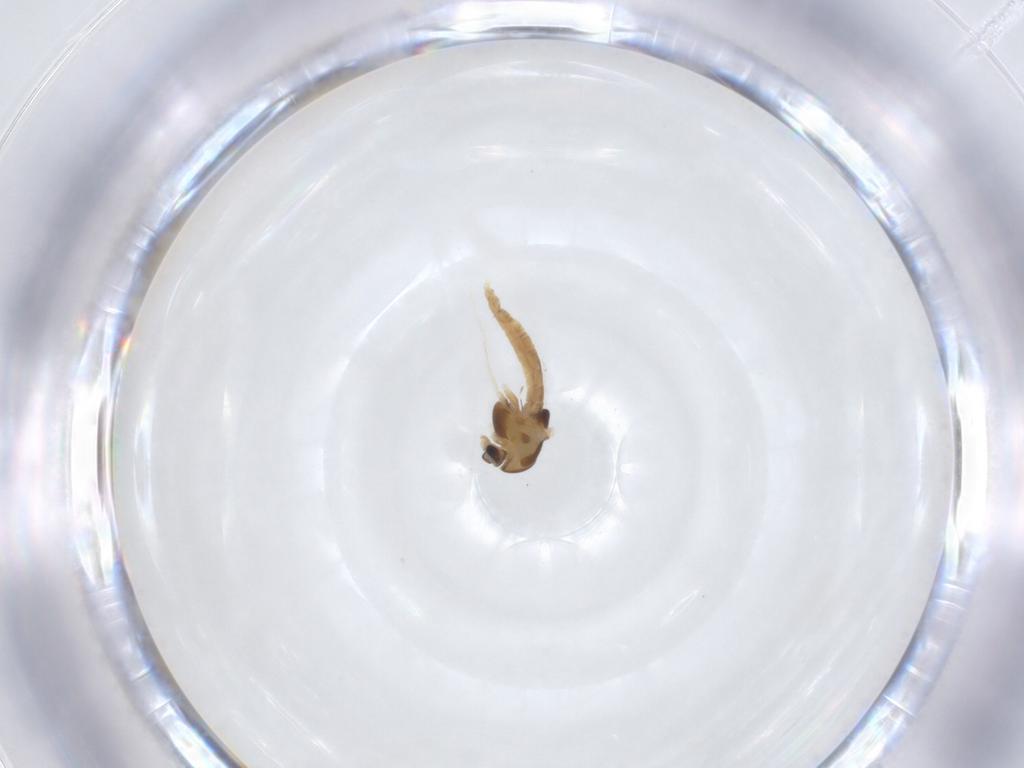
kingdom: Animalia
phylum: Arthropoda
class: Insecta
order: Diptera
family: Chironomidae
